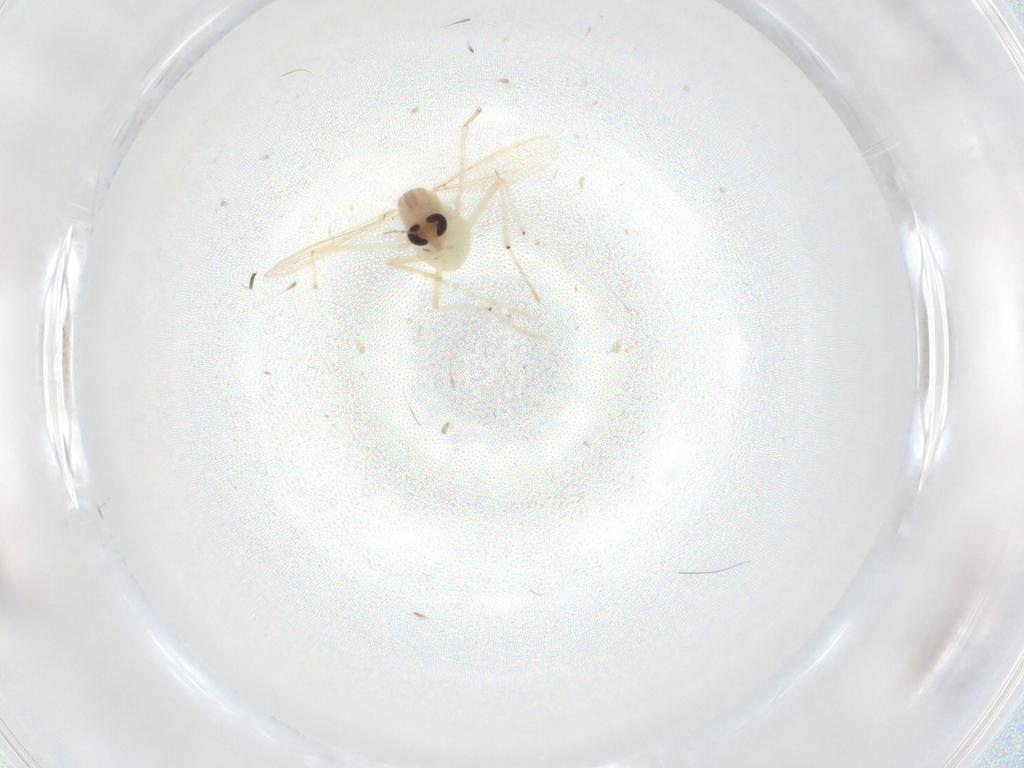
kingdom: Animalia
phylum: Arthropoda
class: Insecta
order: Diptera
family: Chironomidae
